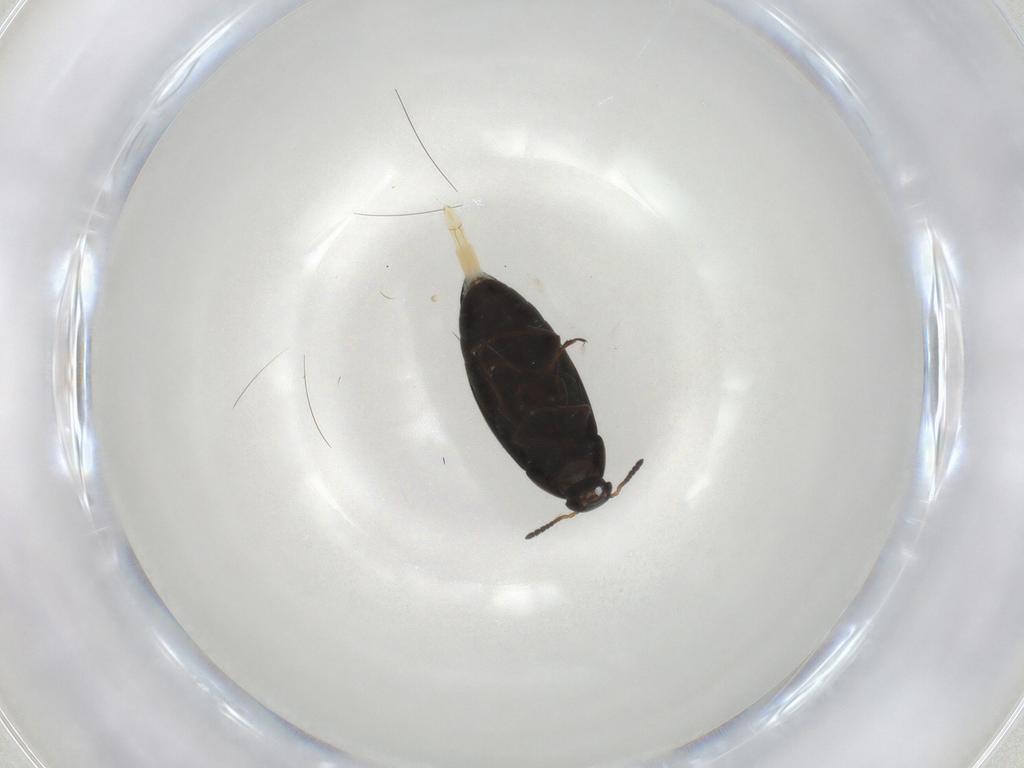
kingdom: Animalia
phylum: Arthropoda
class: Insecta
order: Coleoptera
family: Scraptiidae
